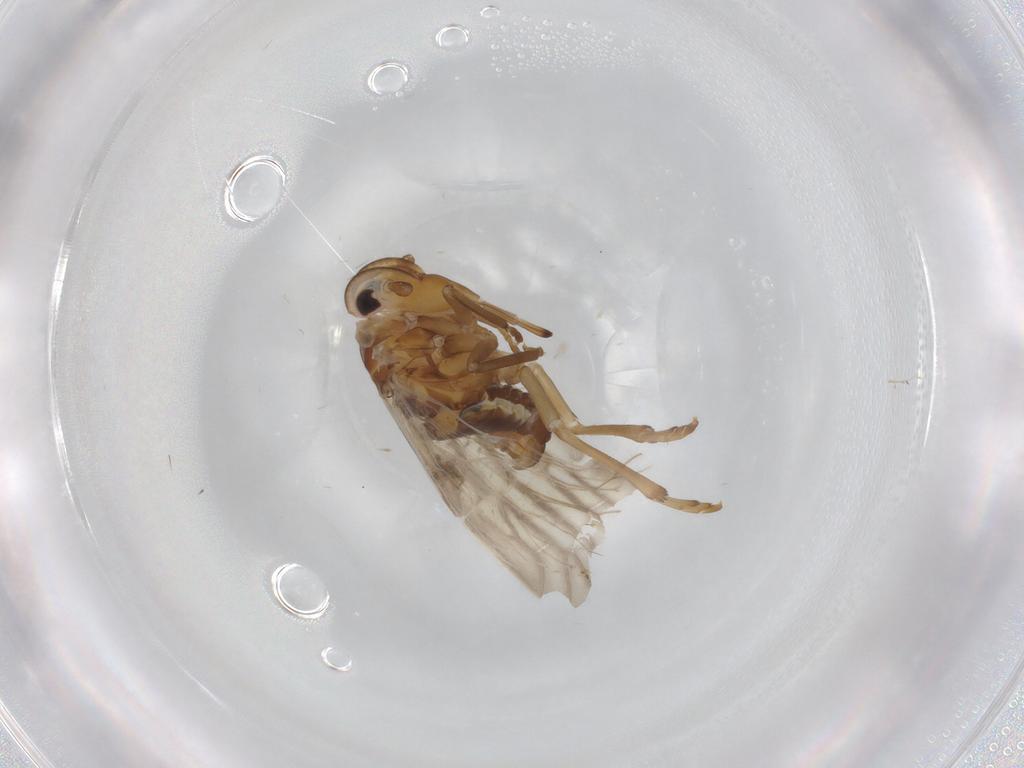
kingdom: Animalia
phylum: Arthropoda
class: Insecta
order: Hemiptera
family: Meenoplidae
